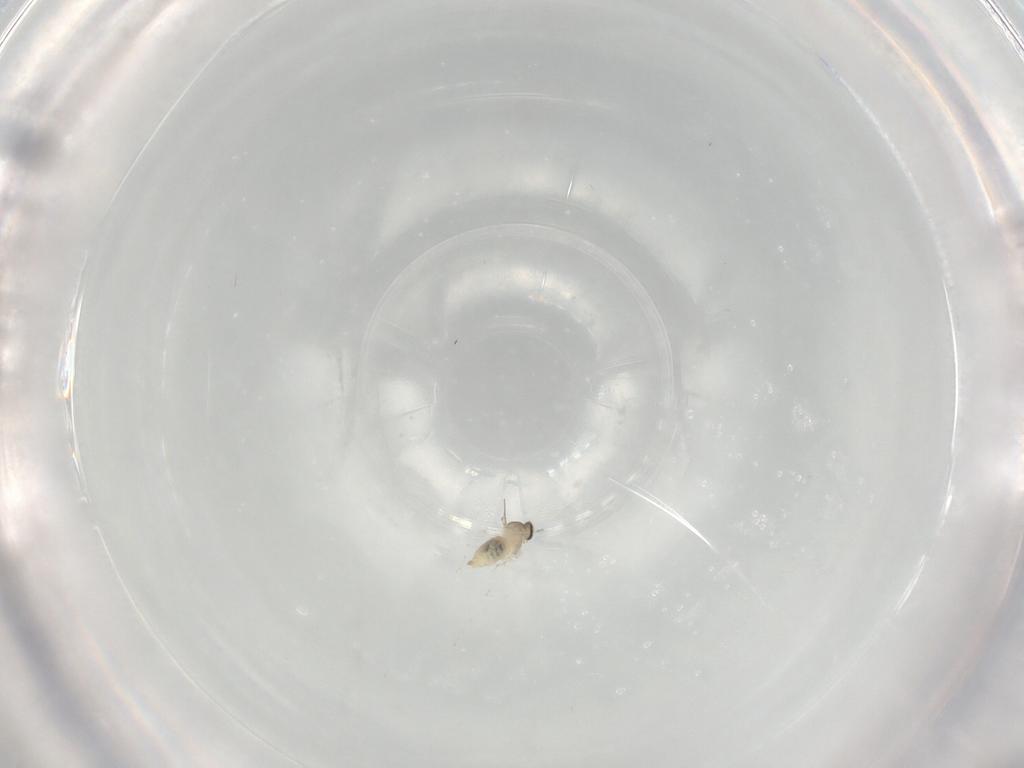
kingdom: Animalia
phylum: Arthropoda
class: Insecta
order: Diptera
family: Cecidomyiidae
